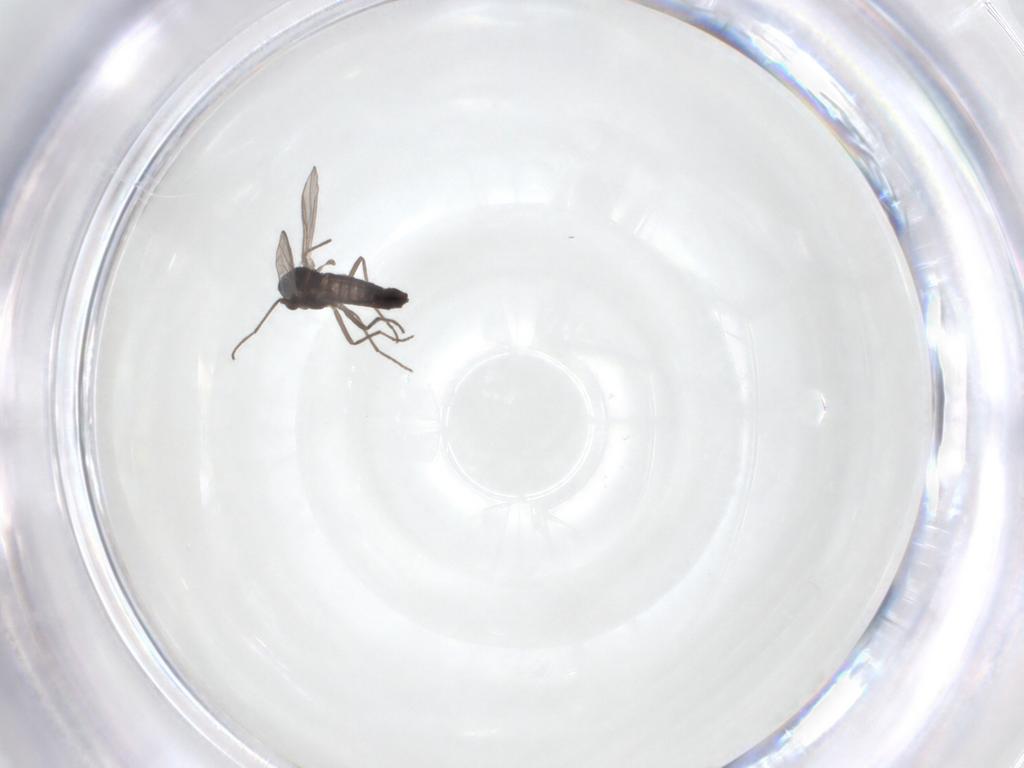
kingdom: Animalia
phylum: Arthropoda
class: Insecta
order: Diptera
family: Chironomidae
